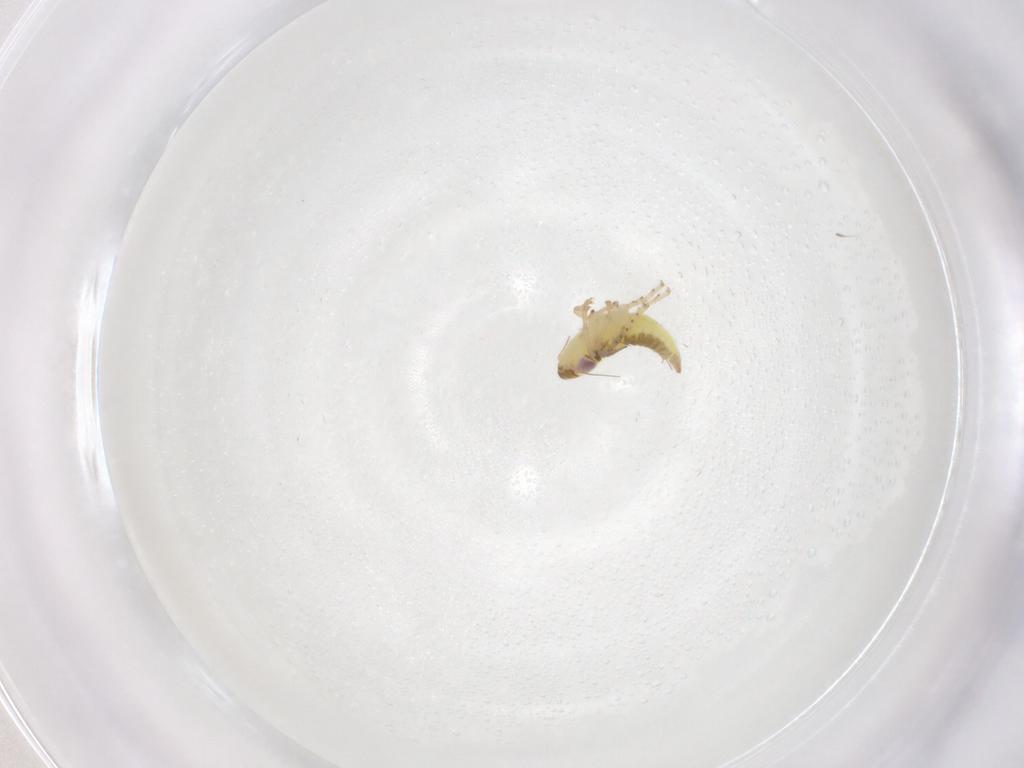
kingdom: Animalia
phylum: Arthropoda
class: Insecta
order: Hemiptera
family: Cicadellidae
